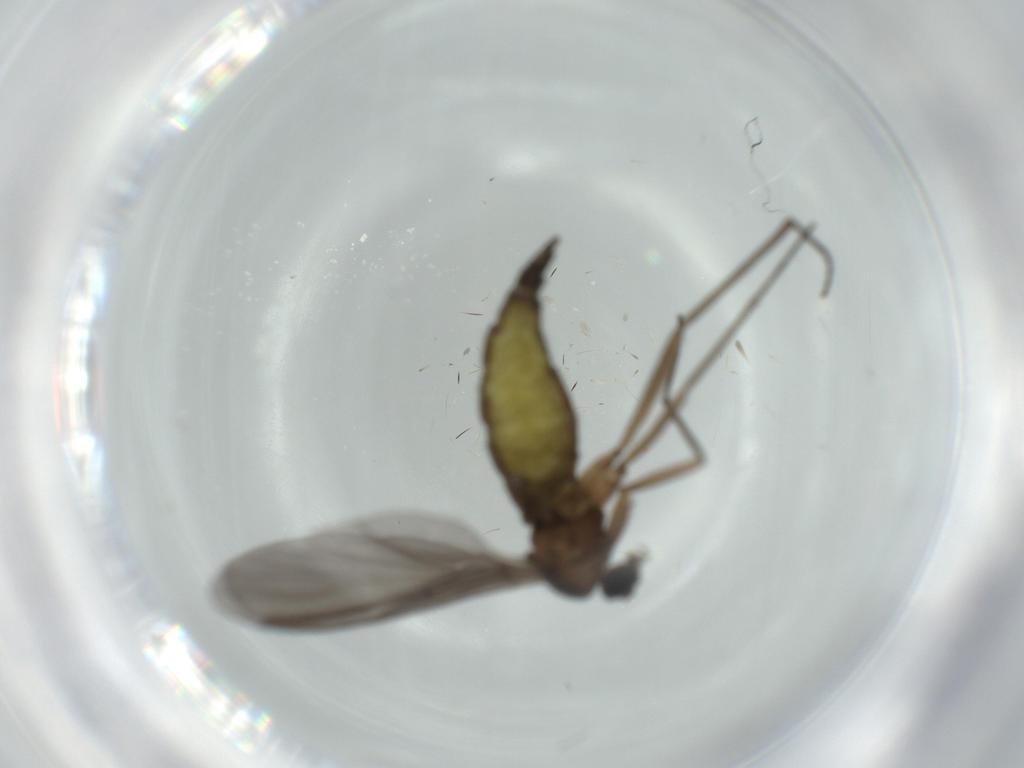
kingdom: Animalia
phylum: Arthropoda
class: Insecta
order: Diptera
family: Sciaridae
